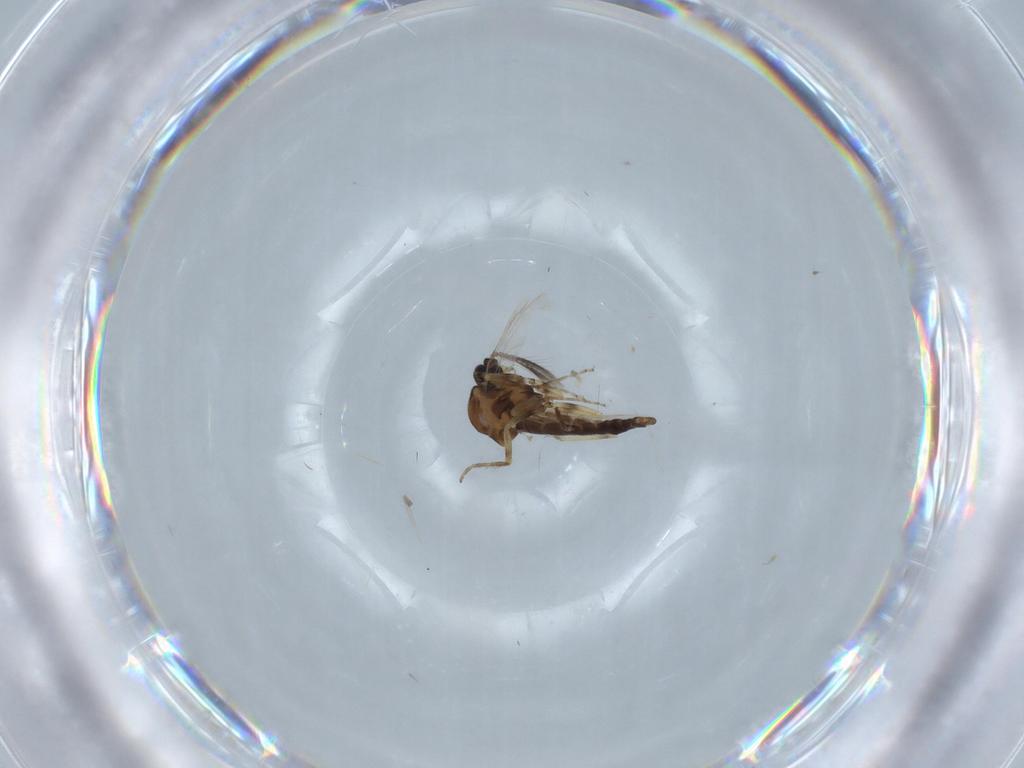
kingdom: Animalia
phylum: Arthropoda
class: Insecta
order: Diptera
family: Ceratopogonidae
